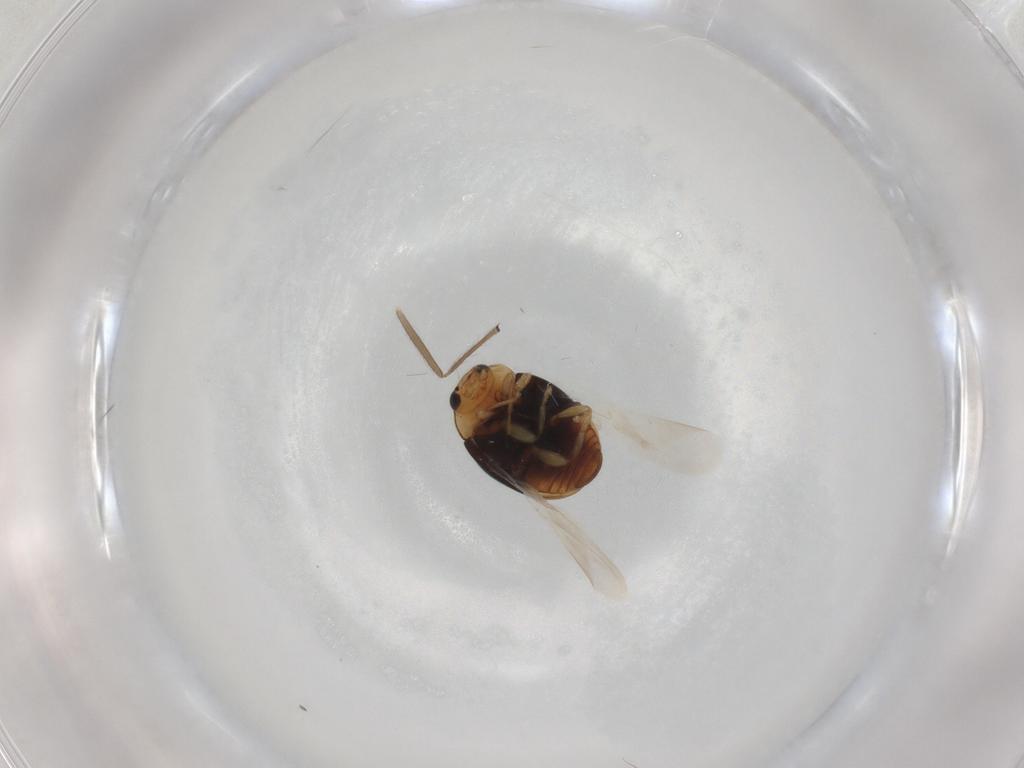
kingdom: Animalia
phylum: Arthropoda
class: Insecta
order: Coleoptera
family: Coccinellidae
